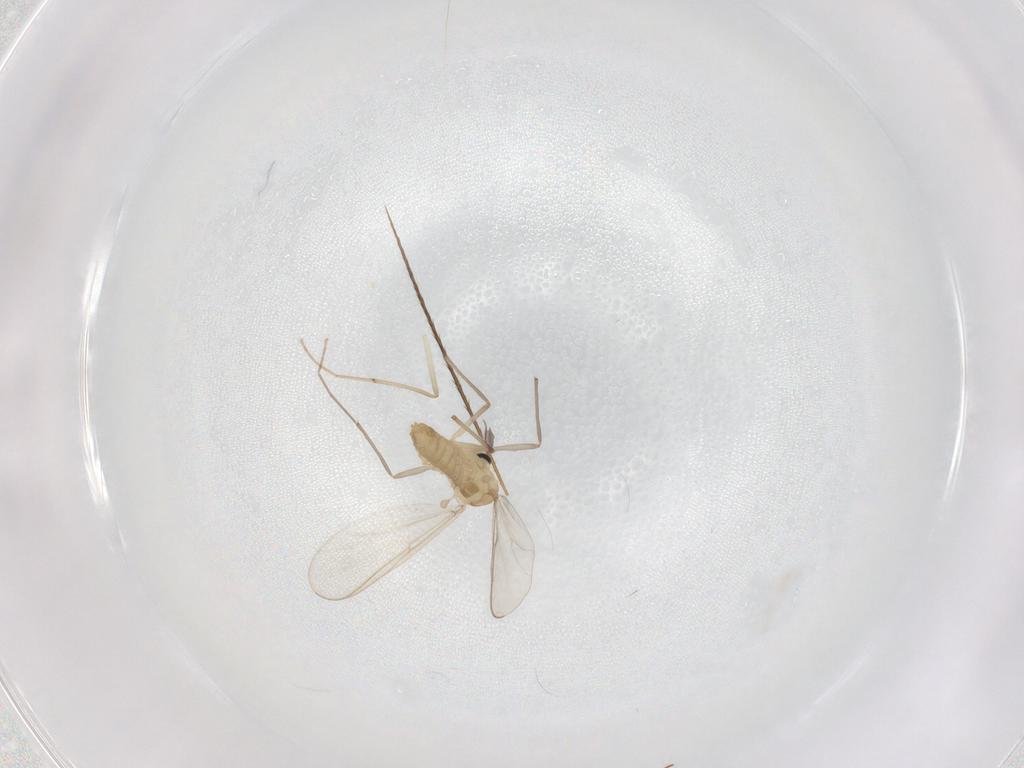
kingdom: Animalia
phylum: Arthropoda
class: Insecta
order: Diptera
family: Chironomidae
